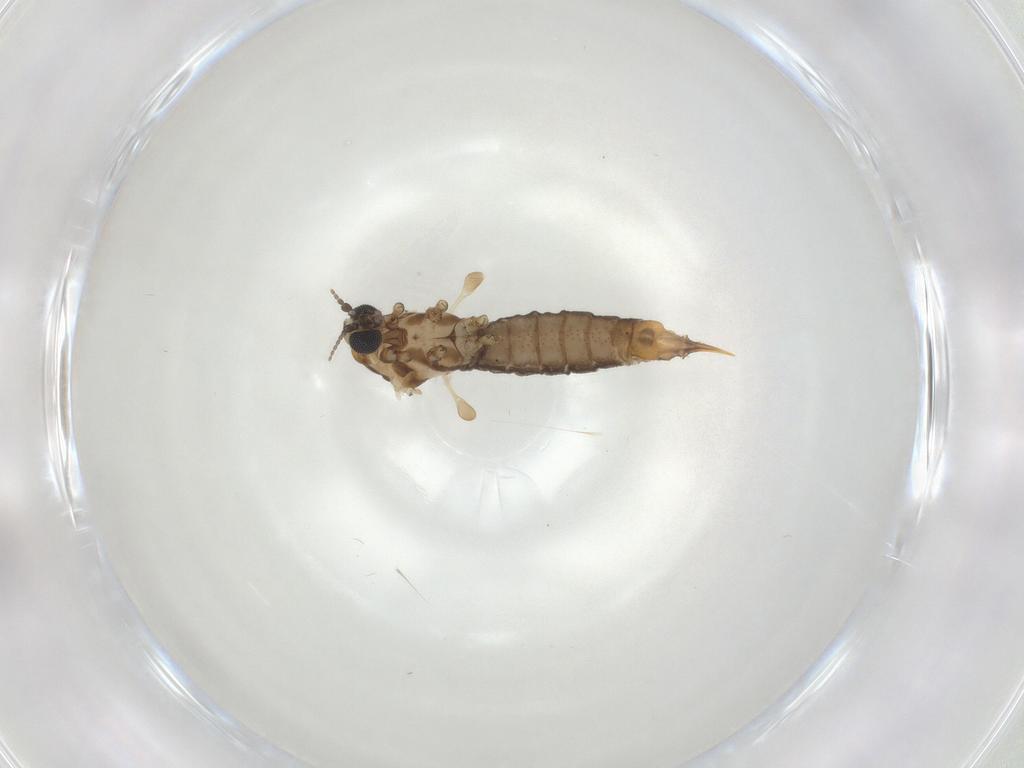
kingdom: Animalia
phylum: Arthropoda
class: Insecta
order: Diptera
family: Limoniidae
